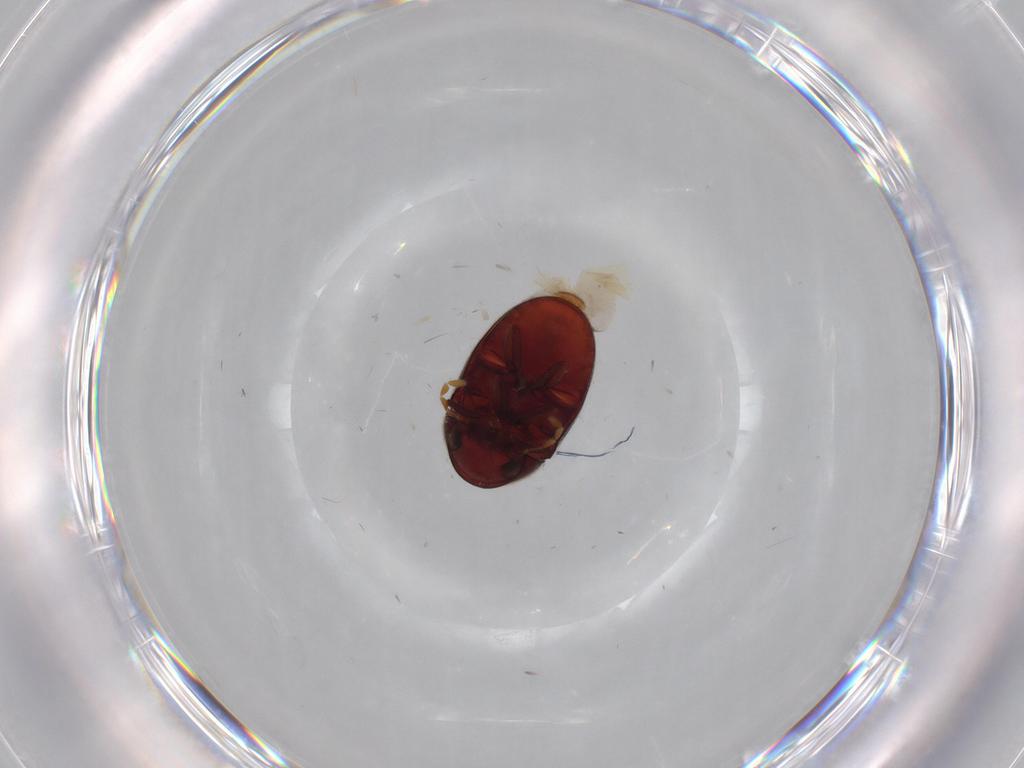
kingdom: Animalia
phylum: Arthropoda
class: Insecta
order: Coleoptera
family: Ptinidae
